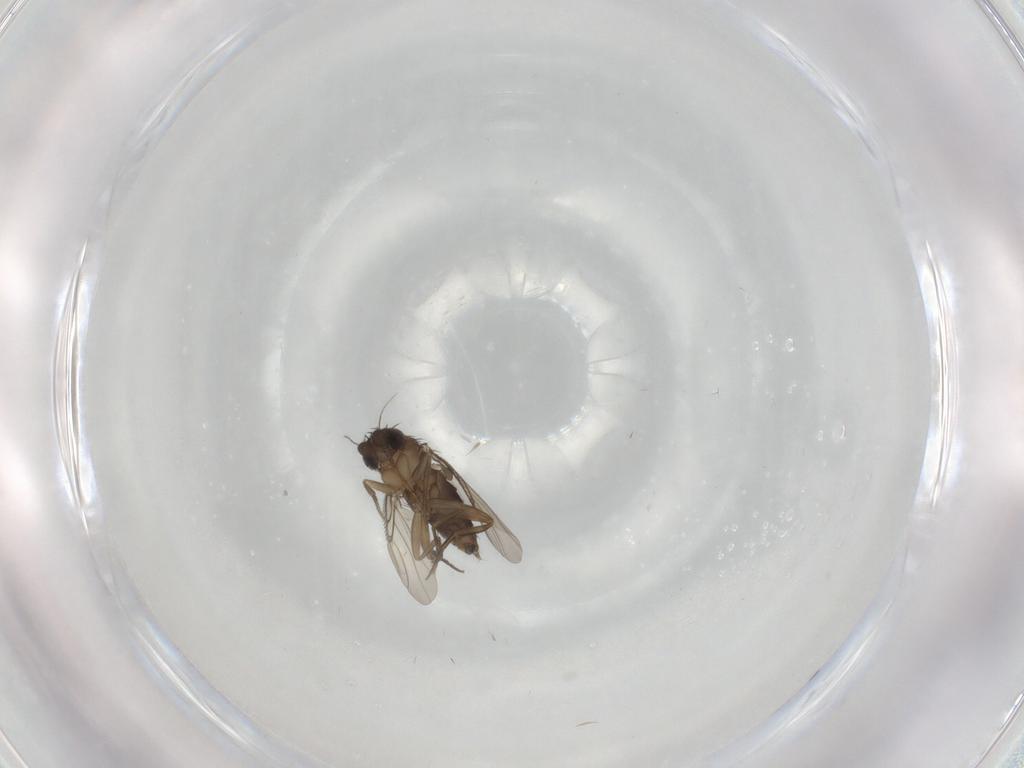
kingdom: Animalia
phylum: Arthropoda
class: Insecta
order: Diptera
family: Phoridae
